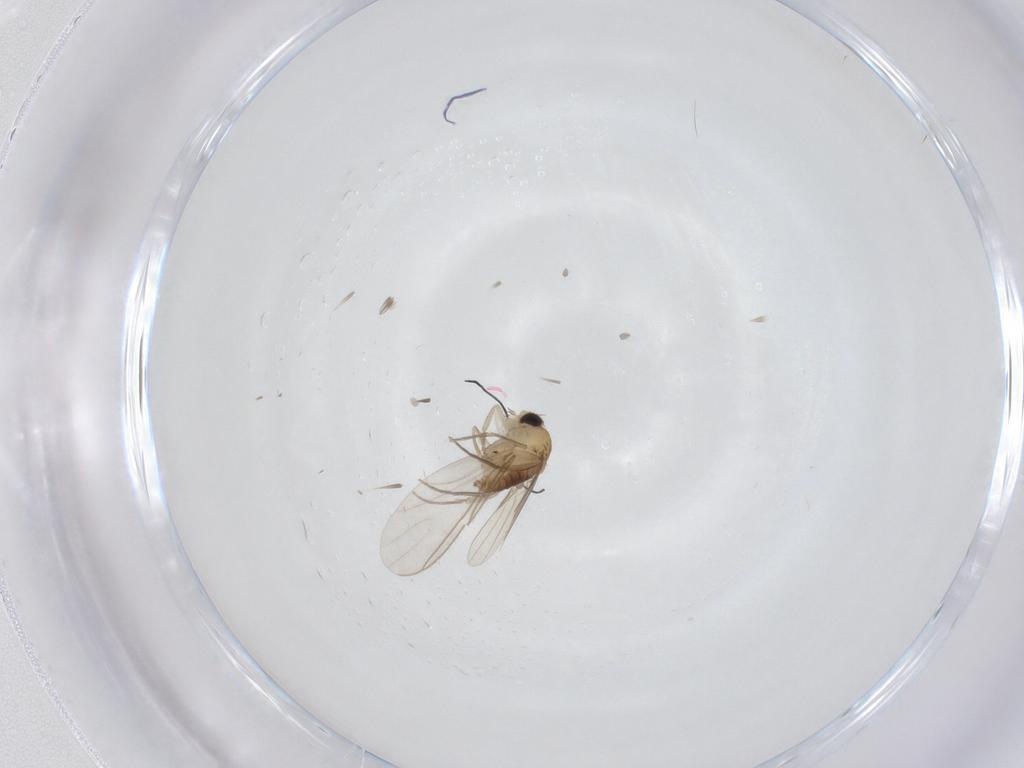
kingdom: Animalia
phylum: Arthropoda
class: Insecta
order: Diptera
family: Phoridae
